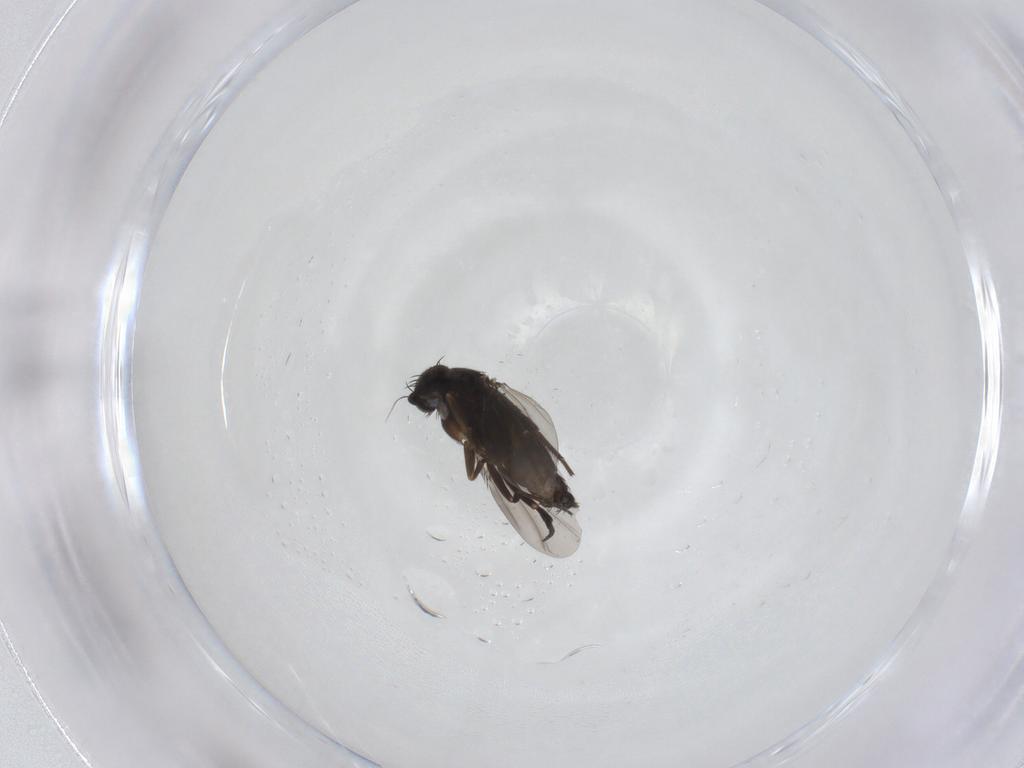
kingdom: Animalia
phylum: Arthropoda
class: Insecta
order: Diptera
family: Phoridae
